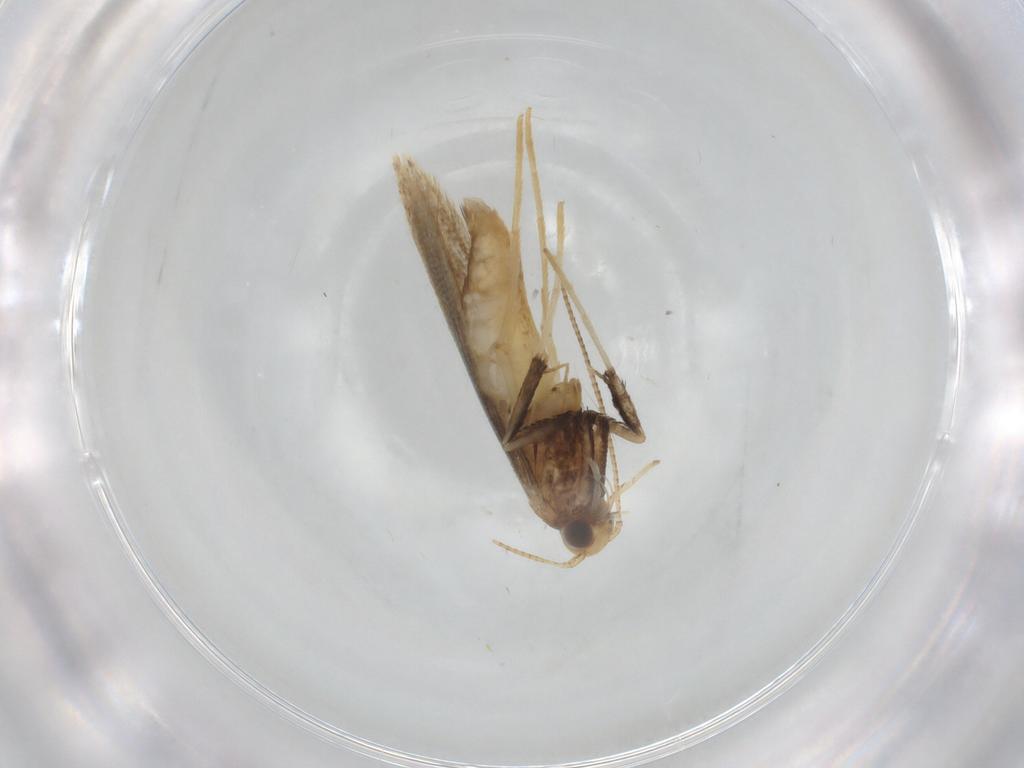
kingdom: Animalia
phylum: Arthropoda
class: Insecta
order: Lepidoptera
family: Gracillariidae
